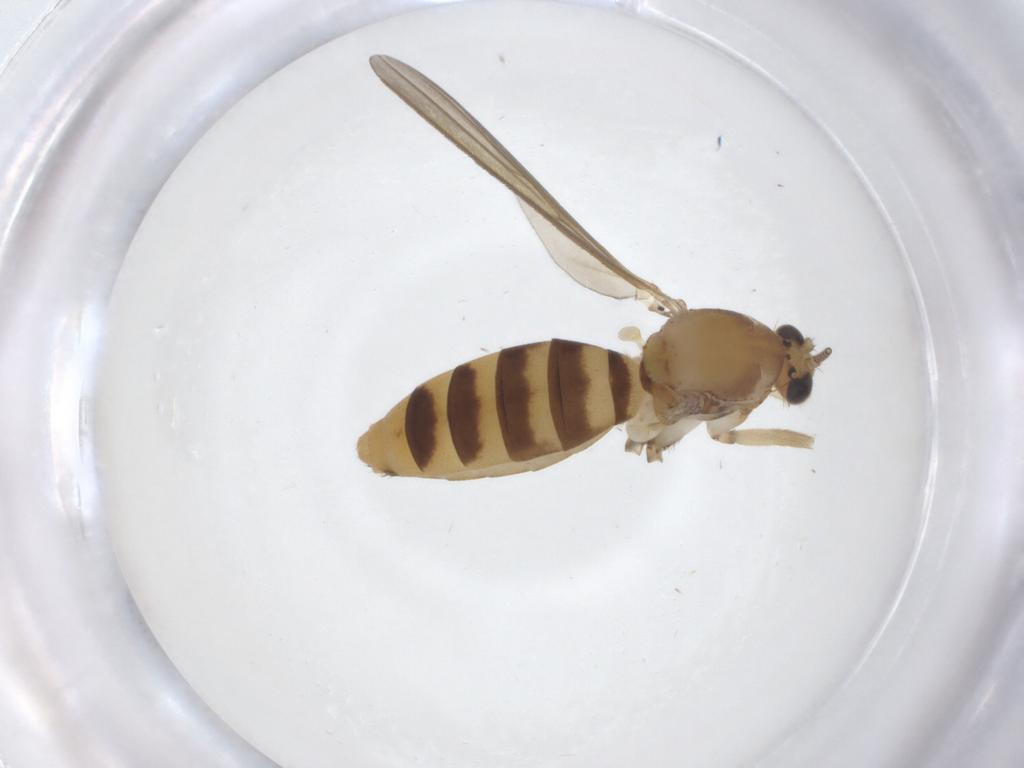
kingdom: Animalia
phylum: Arthropoda
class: Insecta
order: Diptera
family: Mycetophilidae
